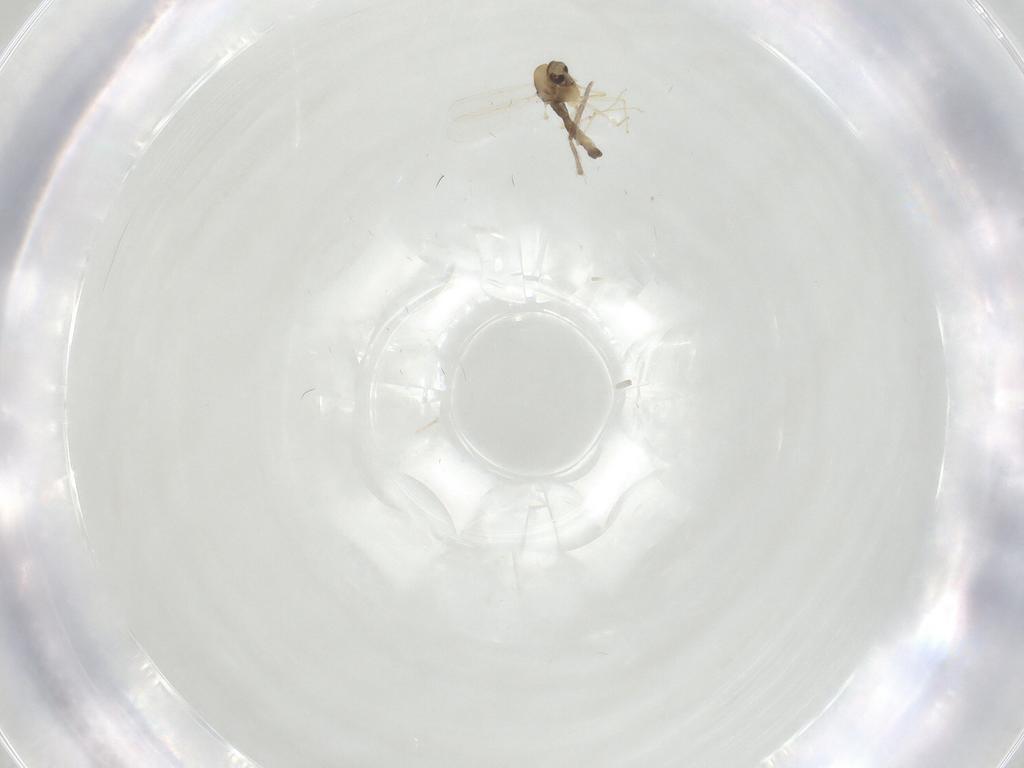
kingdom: Animalia
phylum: Arthropoda
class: Insecta
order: Diptera
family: Chironomidae
